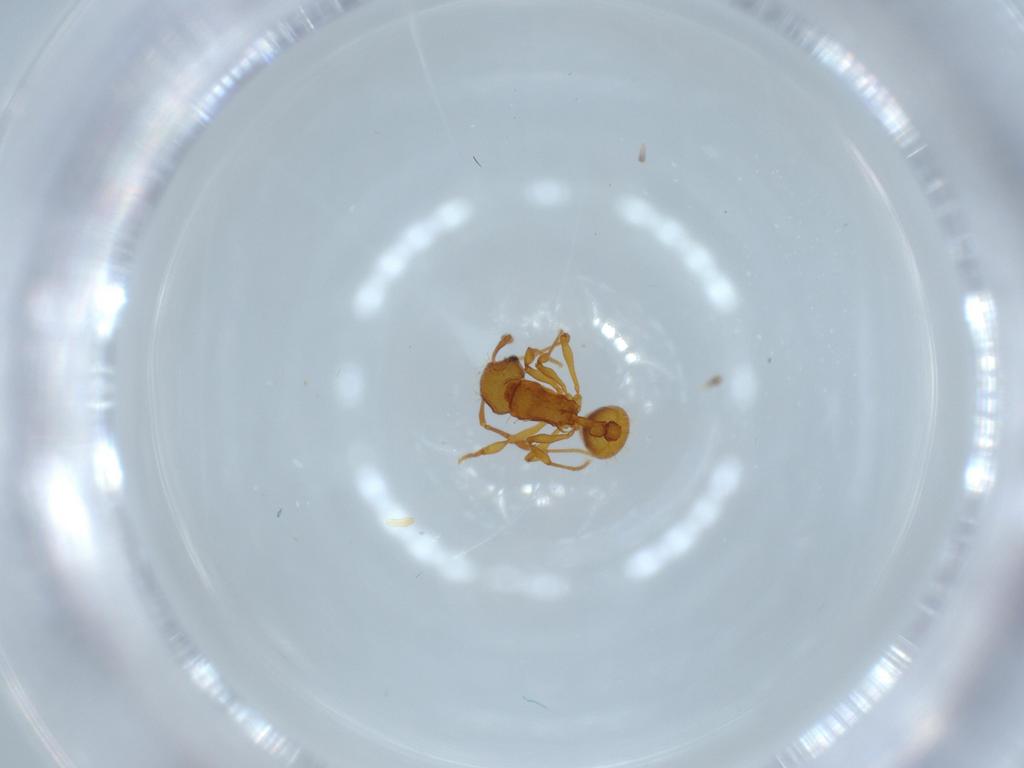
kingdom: Animalia
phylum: Arthropoda
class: Insecta
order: Hymenoptera
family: Formicidae
